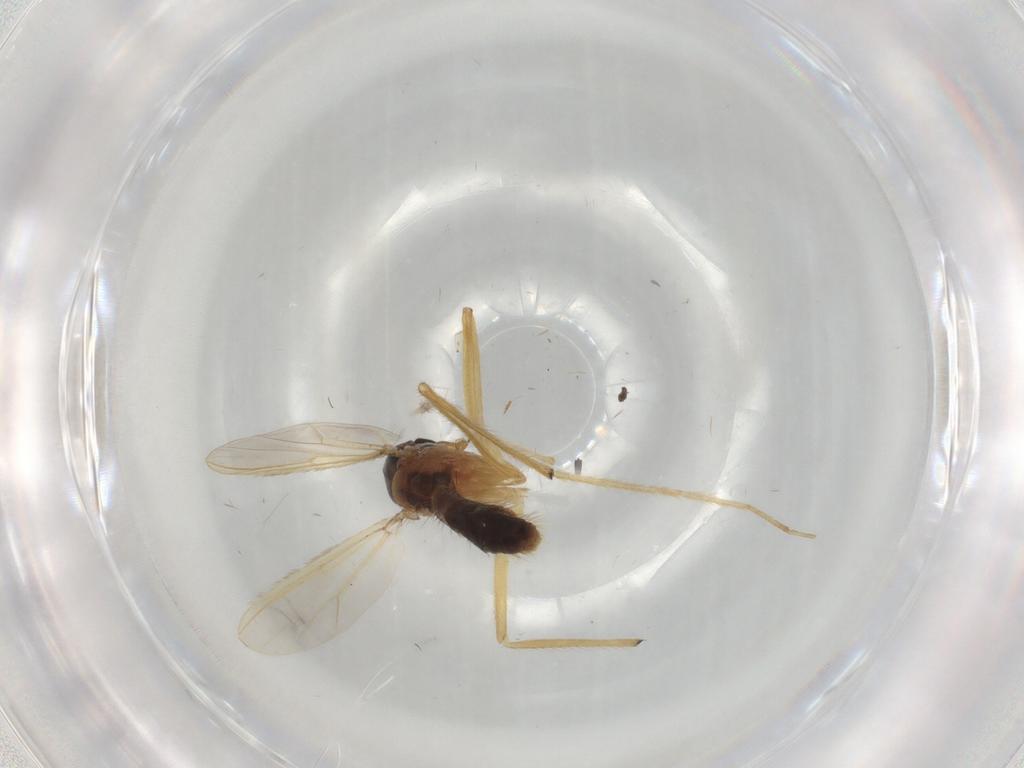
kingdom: Animalia
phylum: Arthropoda
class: Insecta
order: Diptera
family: Chironomidae
